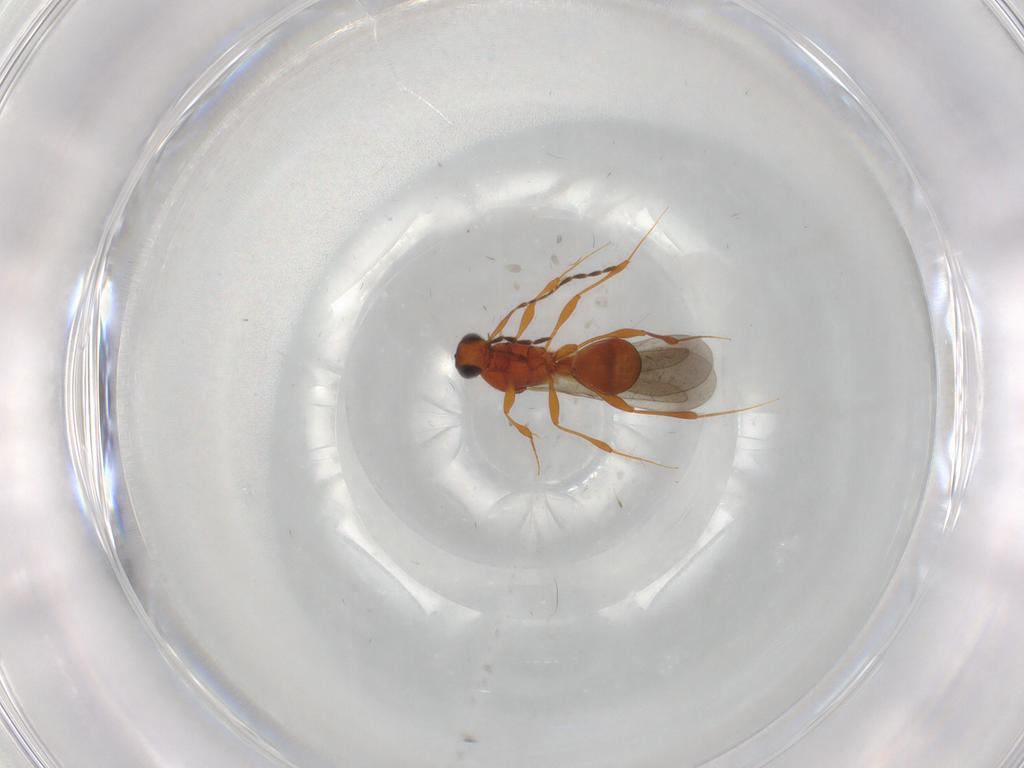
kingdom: Animalia
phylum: Arthropoda
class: Insecta
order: Hymenoptera
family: Platygastridae
